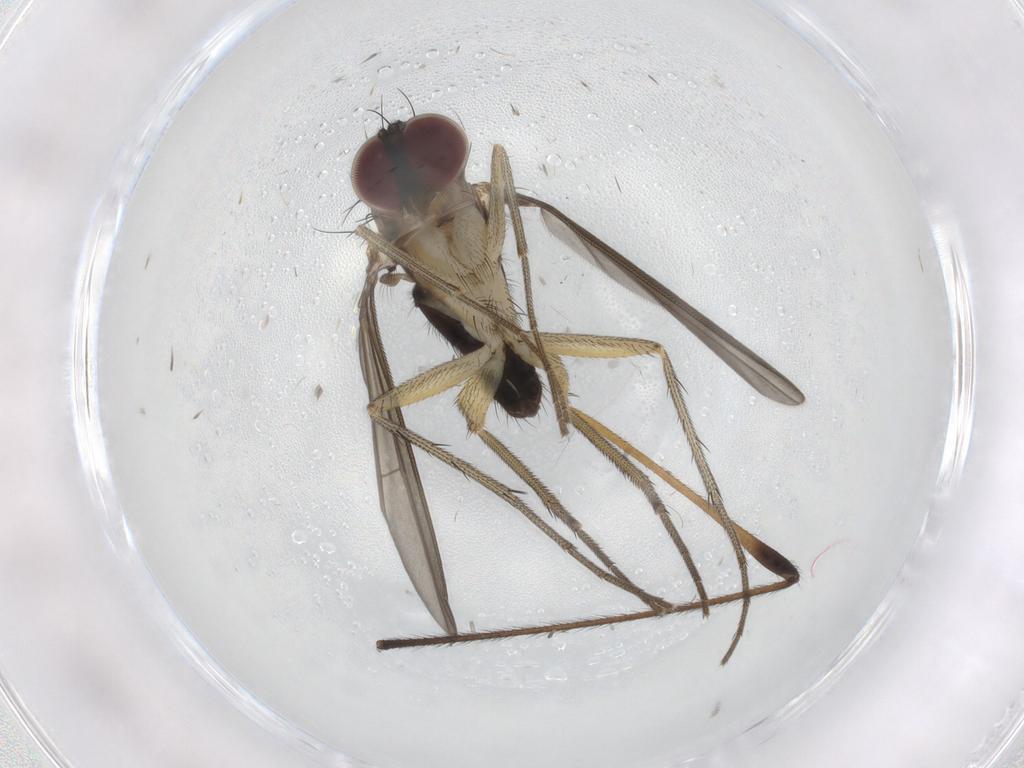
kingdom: Animalia
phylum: Arthropoda
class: Insecta
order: Diptera
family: Dolichopodidae
